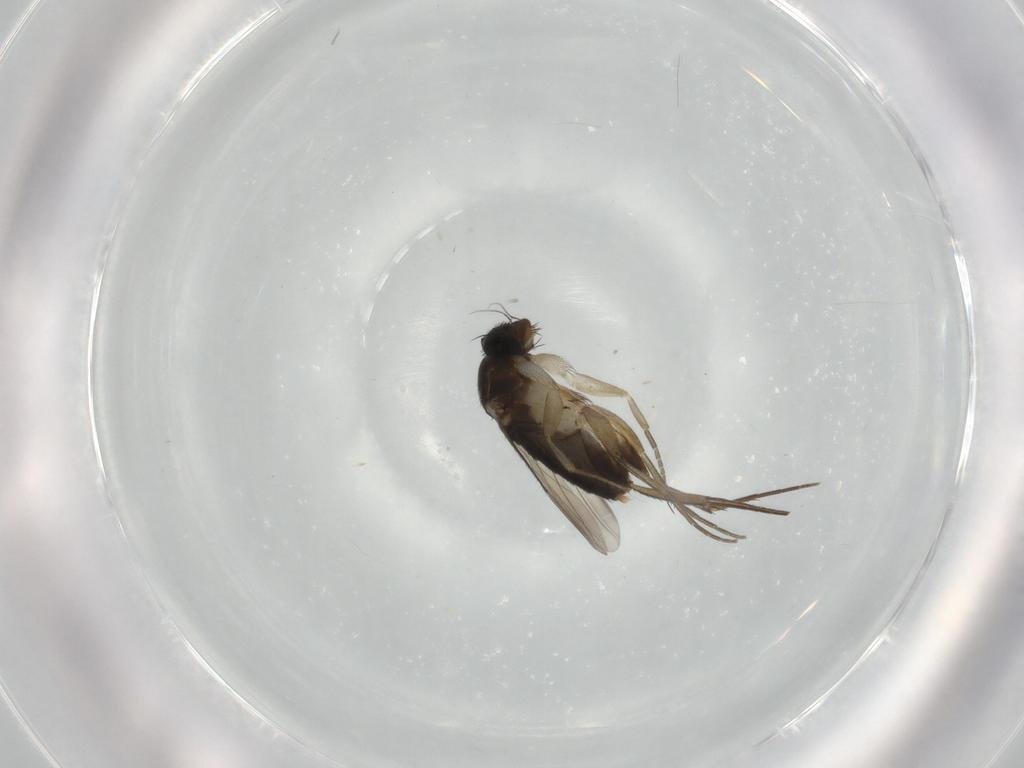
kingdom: Animalia
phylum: Arthropoda
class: Insecta
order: Diptera
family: Phoridae
